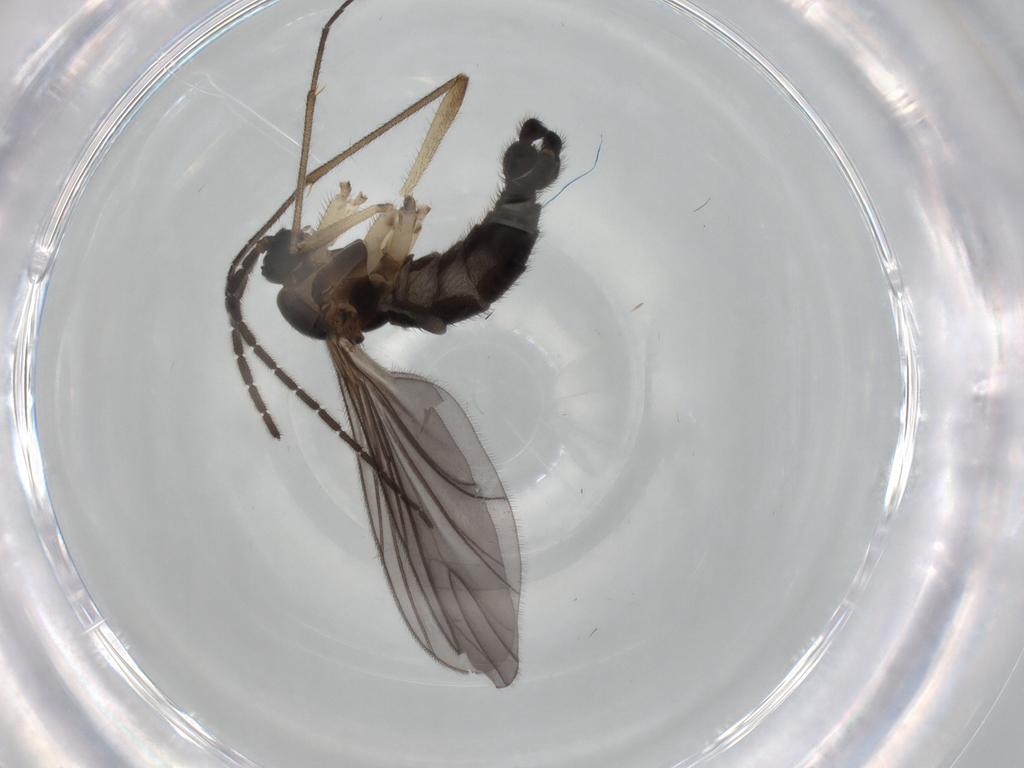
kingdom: Animalia
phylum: Arthropoda
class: Insecta
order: Diptera
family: Sciaridae
